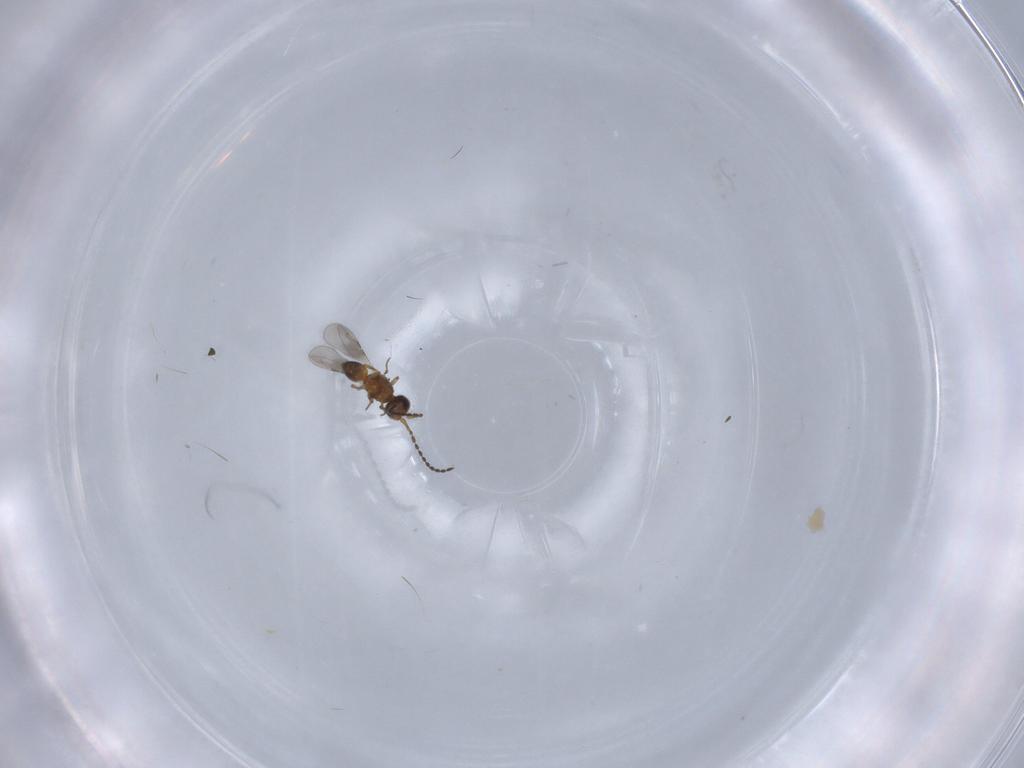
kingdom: Animalia
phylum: Arthropoda
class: Insecta
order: Hymenoptera
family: Ceraphronidae
